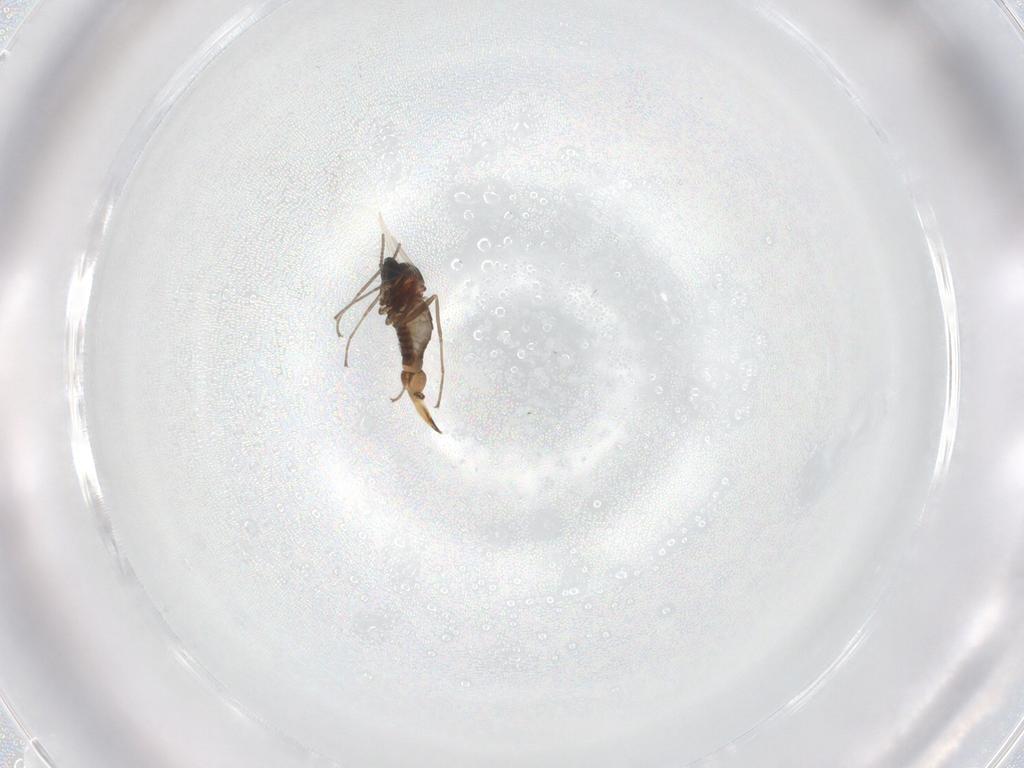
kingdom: Animalia
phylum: Arthropoda
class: Insecta
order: Diptera
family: Cecidomyiidae
